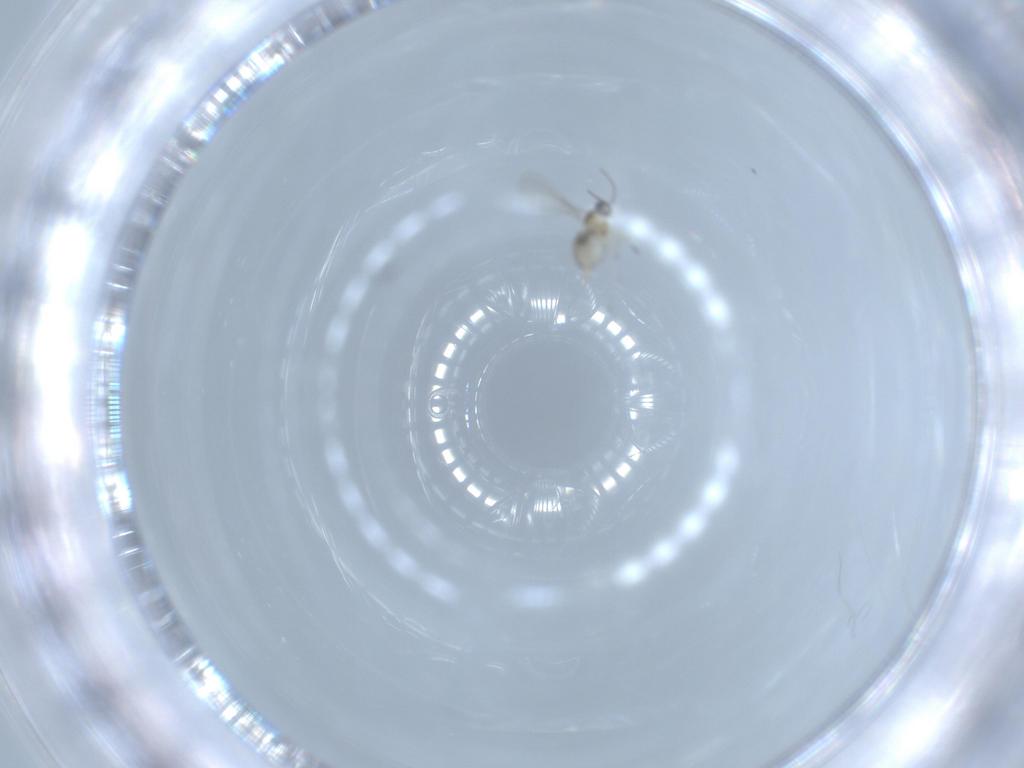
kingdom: Animalia
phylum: Arthropoda
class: Insecta
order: Diptera
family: Cecidomyiidae
